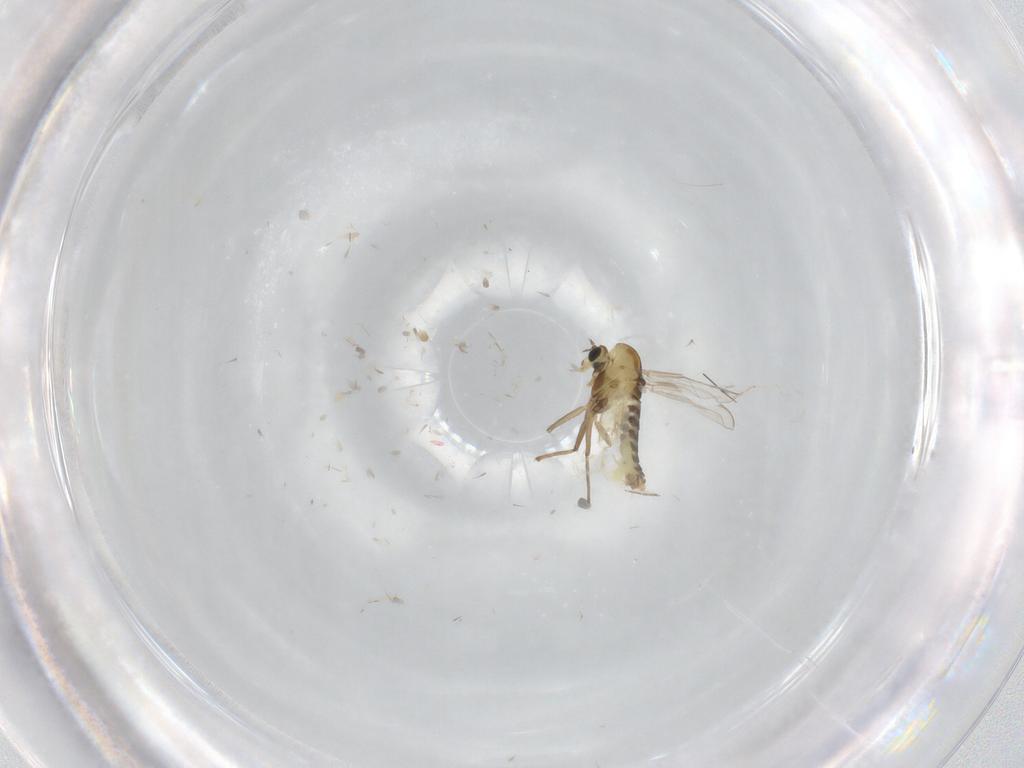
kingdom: Animalia
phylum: Arthropoda
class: Insecta
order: Diptera
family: Chironomidae
